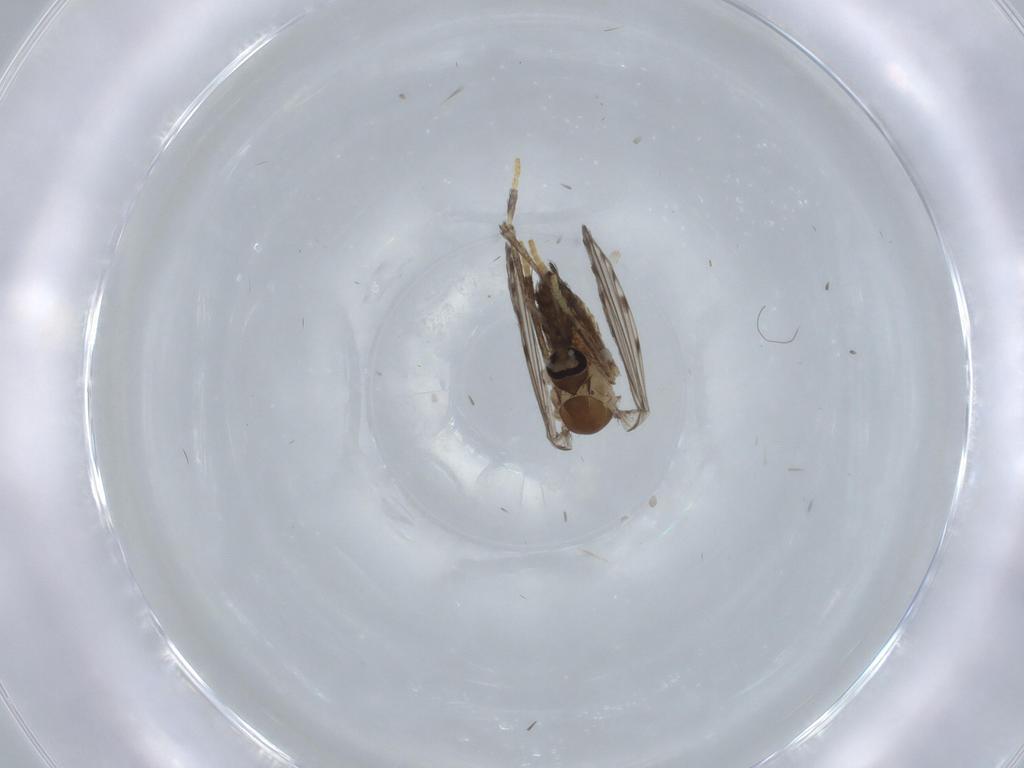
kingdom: Animalia
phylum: Arthropoda
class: Insecta
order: Diptera
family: Psychodidae
